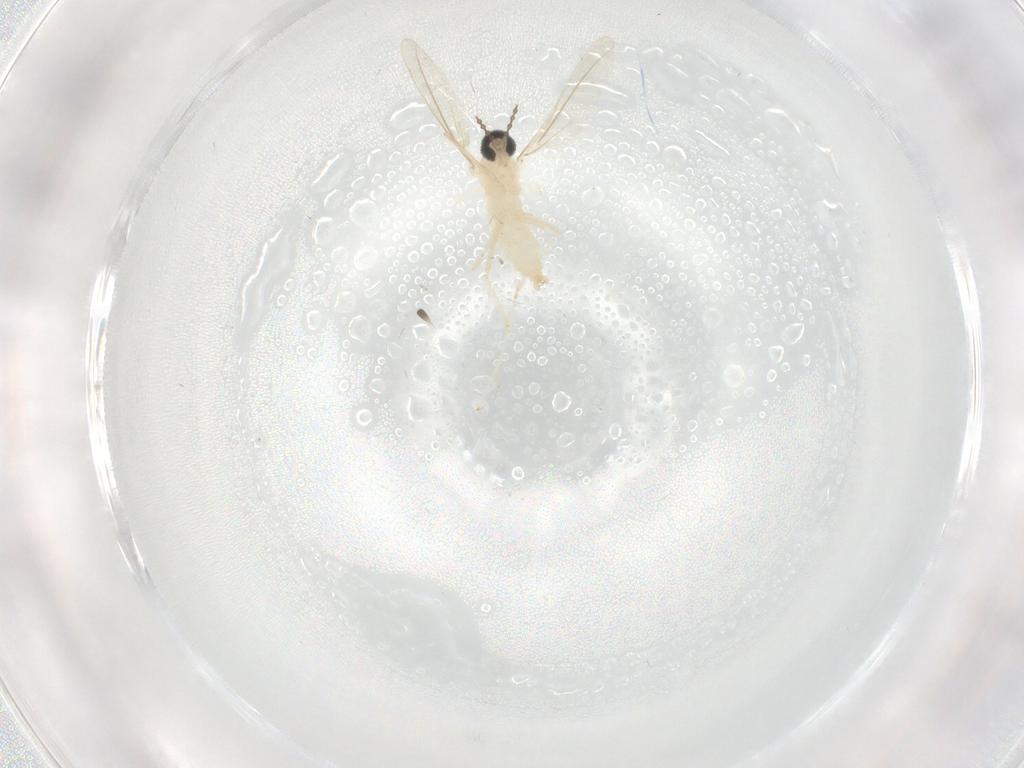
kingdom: Animalia
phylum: Arthropoda
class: Insecta
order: Diptera
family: Cecidomyiidae
